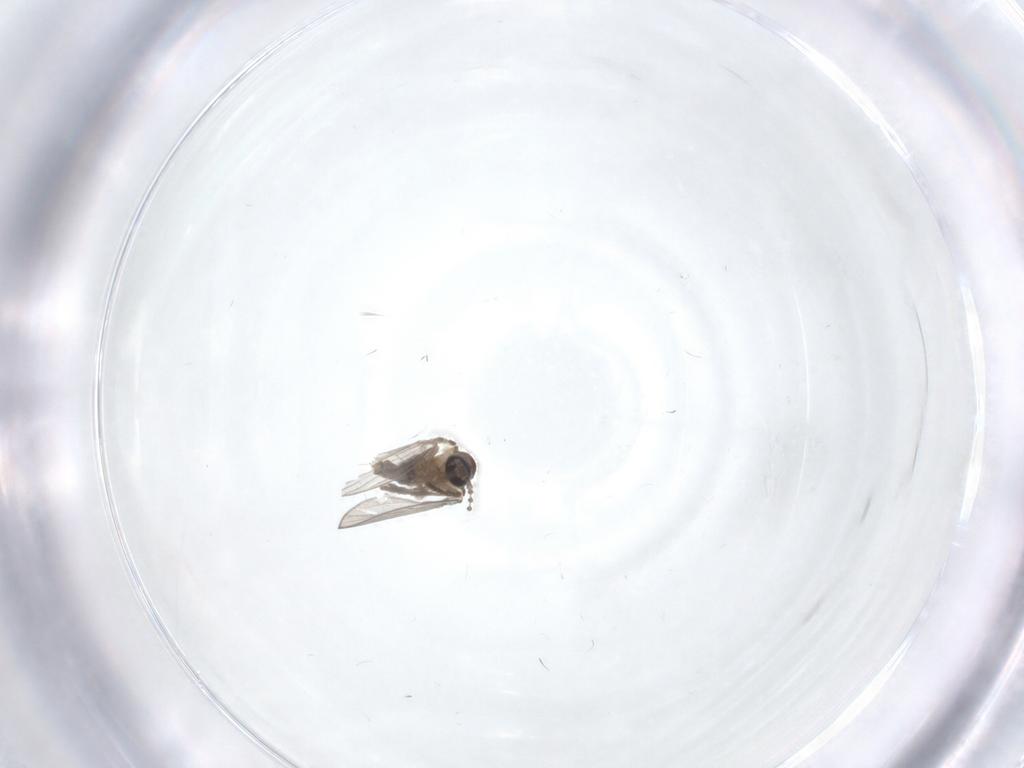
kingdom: Animalia
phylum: Arthropoda
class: Insecta
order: Diptera
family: Psychodidae
